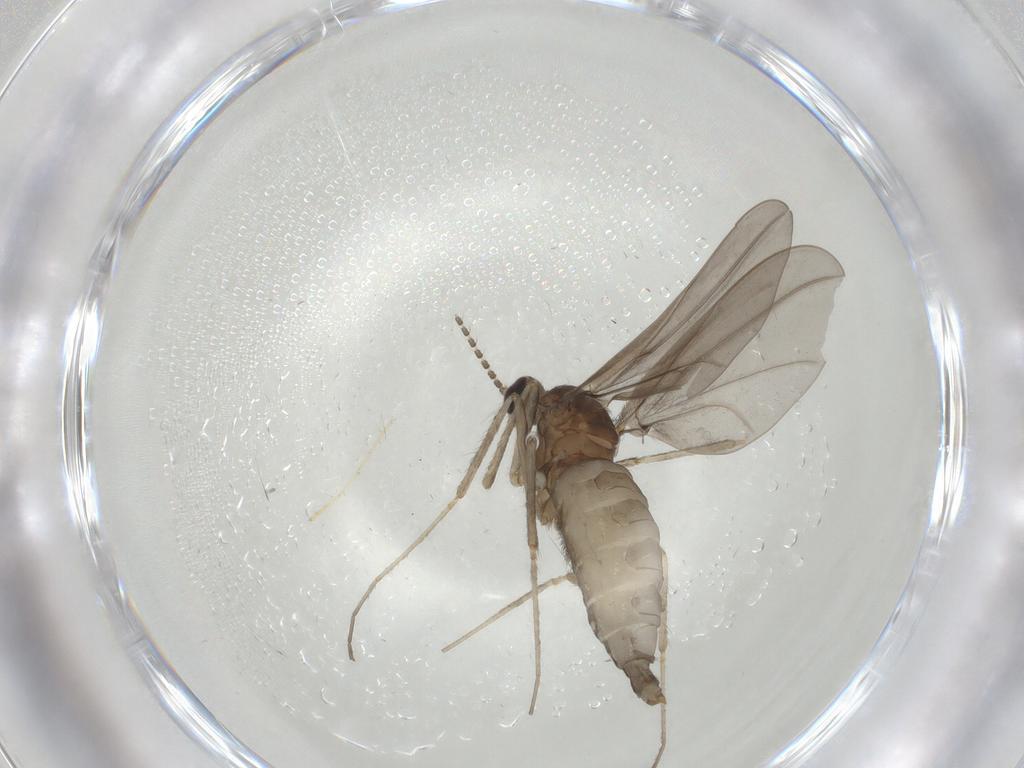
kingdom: Animalia
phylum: Arthropoda
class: Insecta
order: Diptera
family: Cecidomyiidae
